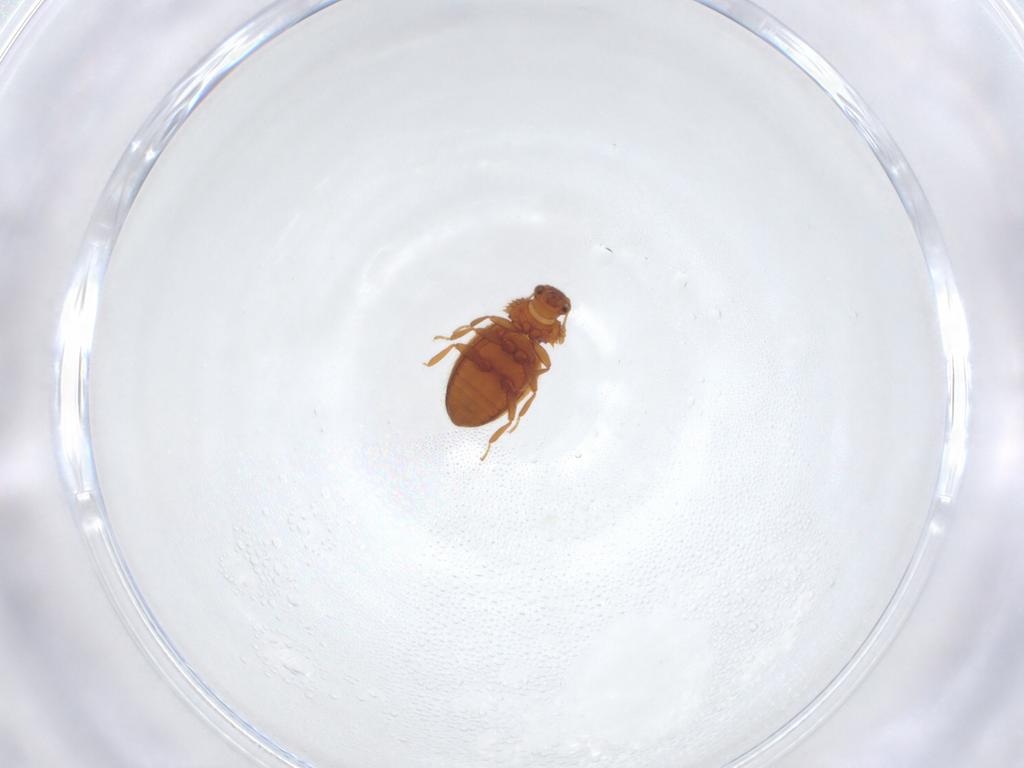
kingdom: Animalia
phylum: Arthropoda
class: Insecta
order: Coleoptera
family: Latridiidae
